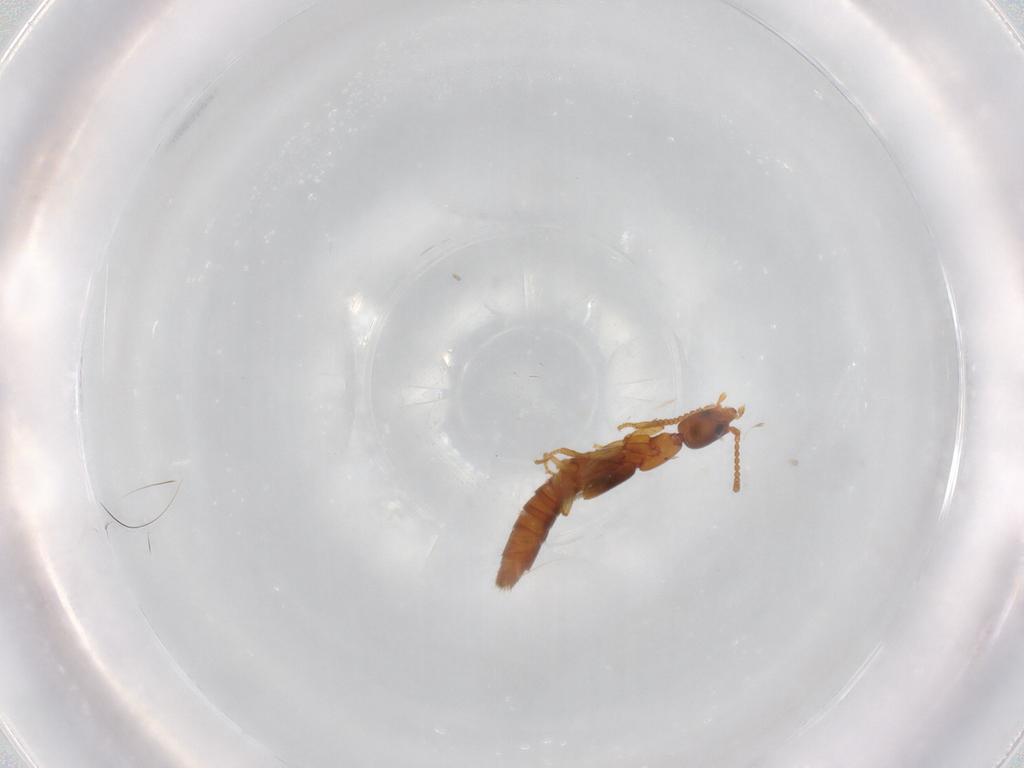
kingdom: Animalia
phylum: Arthropoda
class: Insecta
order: Coleoptera
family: Staphylinidae
